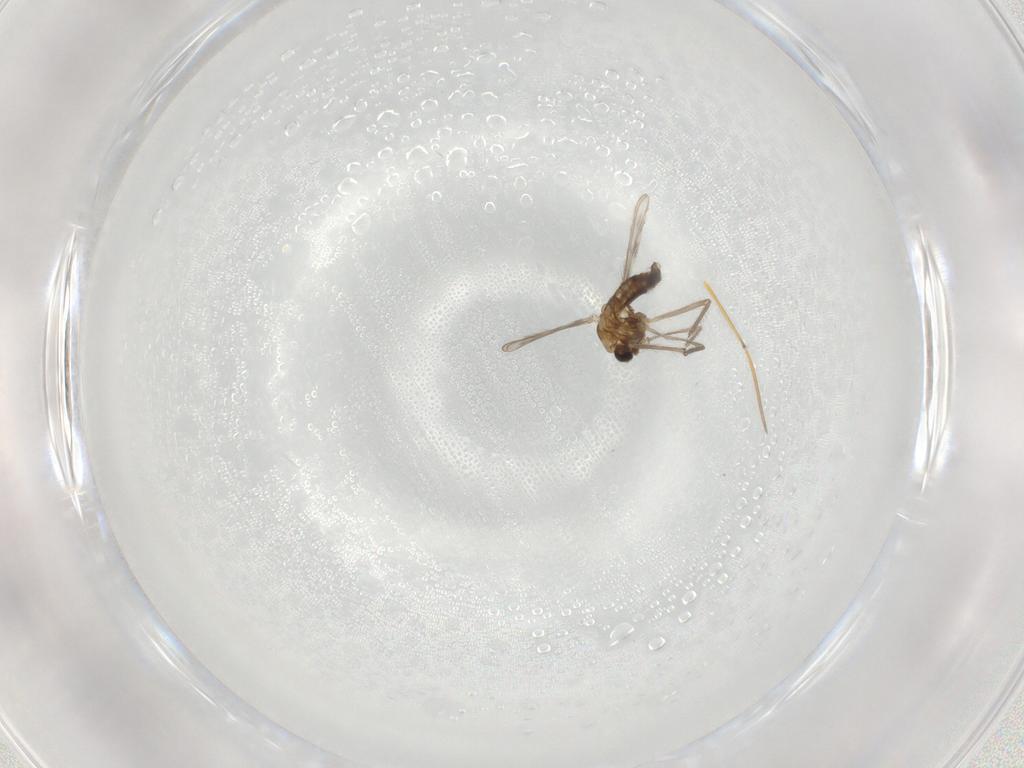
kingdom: Animalia
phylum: Arthropoda
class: Insecta
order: Diptera
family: Chironomidae
